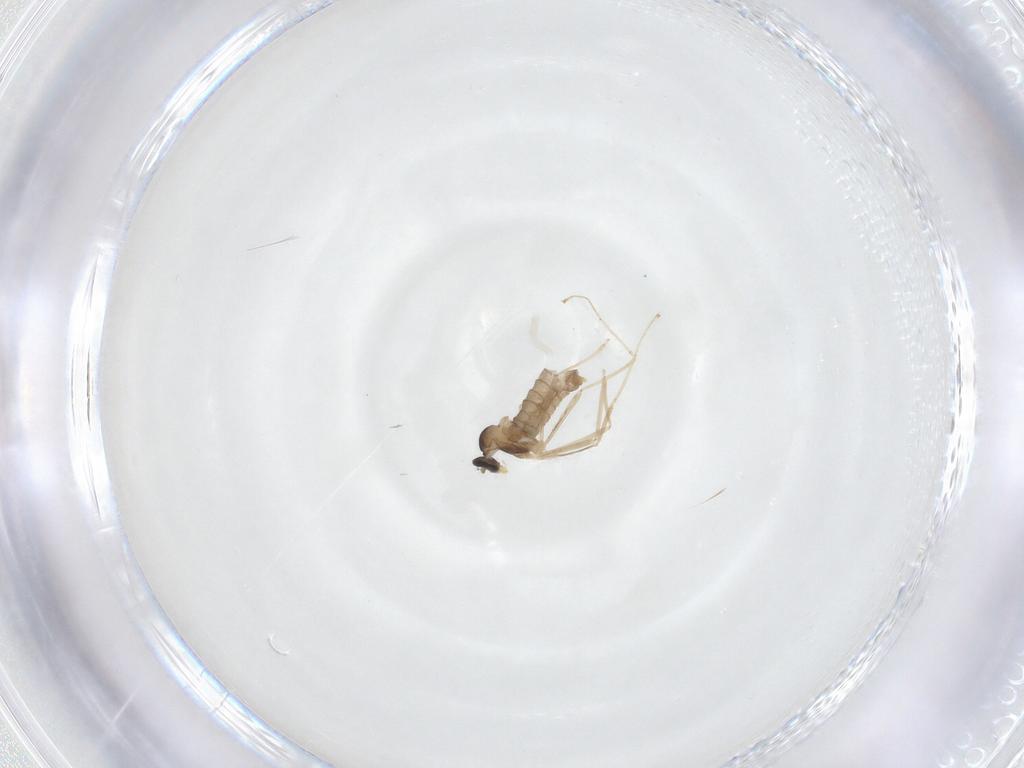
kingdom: Animalia
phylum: Arthropoda
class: Insecta
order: Diptera
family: Cecidomyiidae
